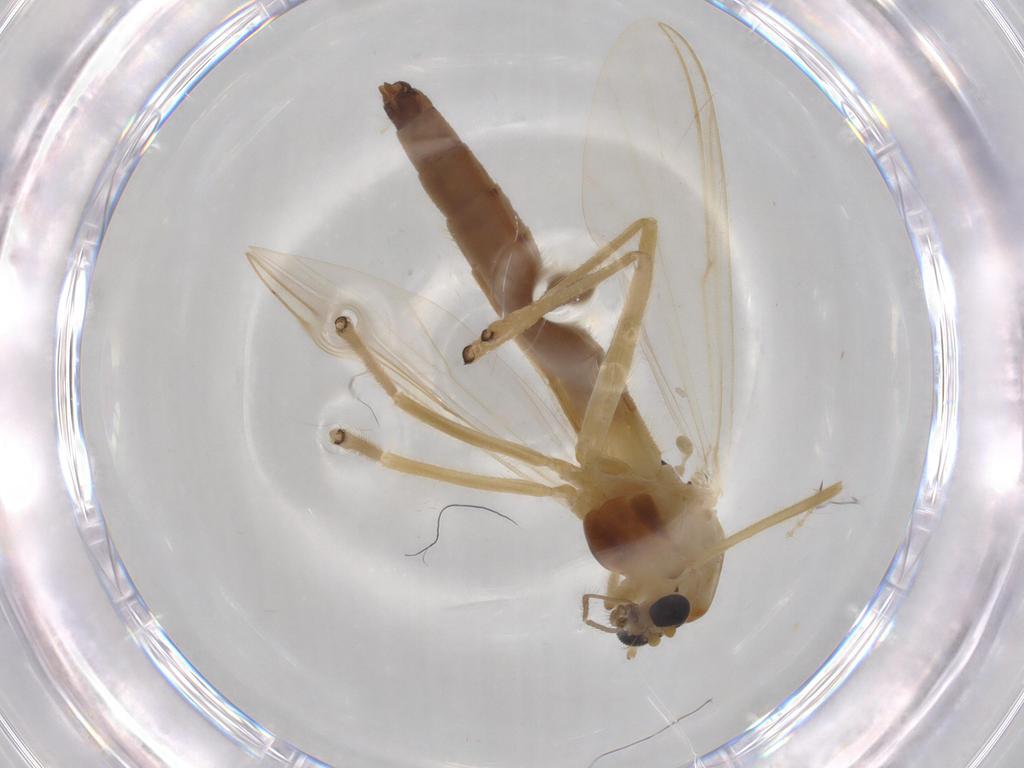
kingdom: Animalia
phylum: Arthropoda
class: Insecta
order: Diptera
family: Chironomidae
